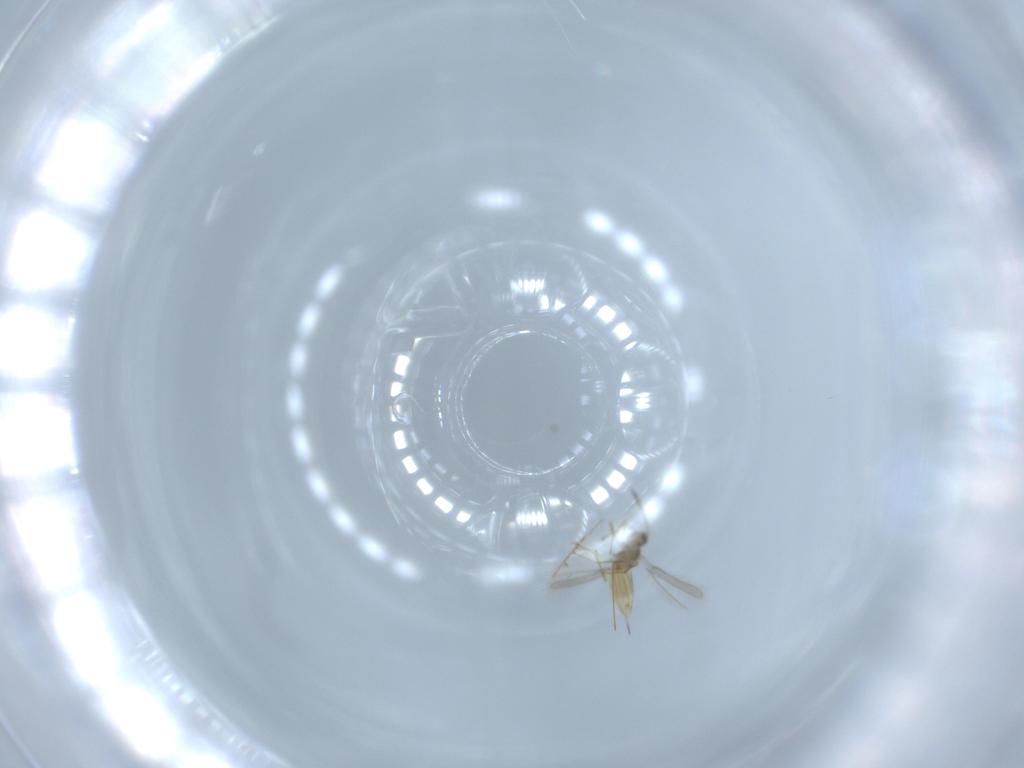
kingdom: Animalia
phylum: Arthropoda
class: Insecta
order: Hymenoptera
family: Mymaridae
